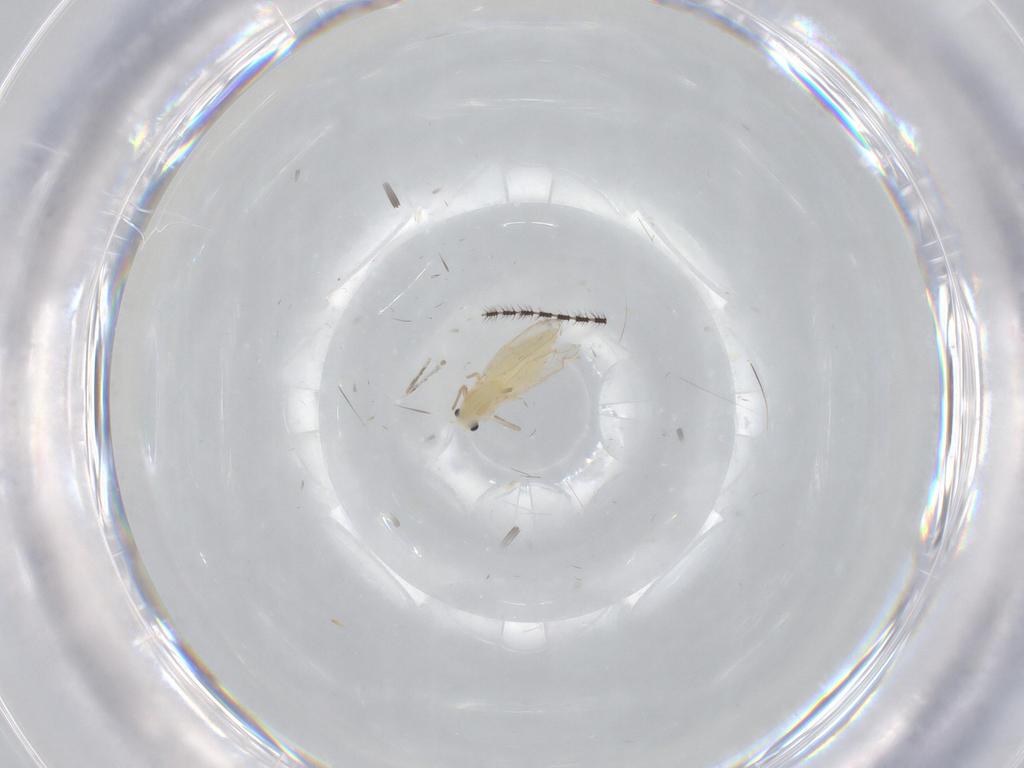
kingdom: Animalia
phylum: Arthropoda
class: Insecta
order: Diptera
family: Chironomidae
